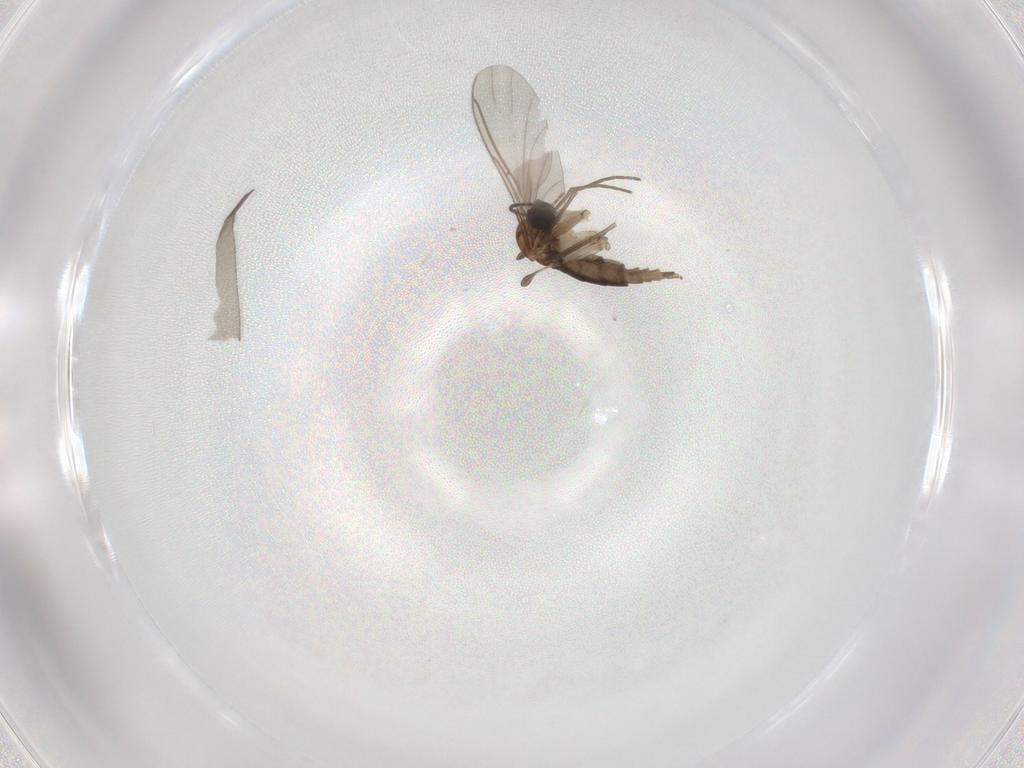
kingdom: Animalia
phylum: Arthropoda
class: Insecta
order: Diptera
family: Sciaridae
